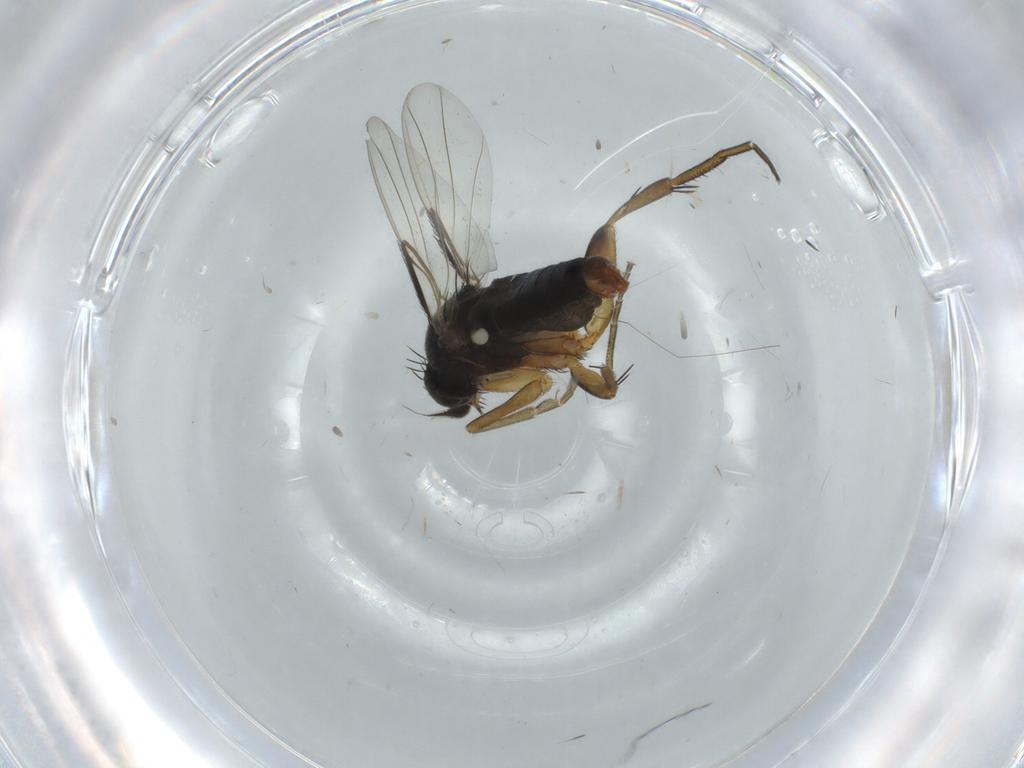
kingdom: Animalia
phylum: Arthropoda
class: Insecta
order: Diptera
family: Phoridae
